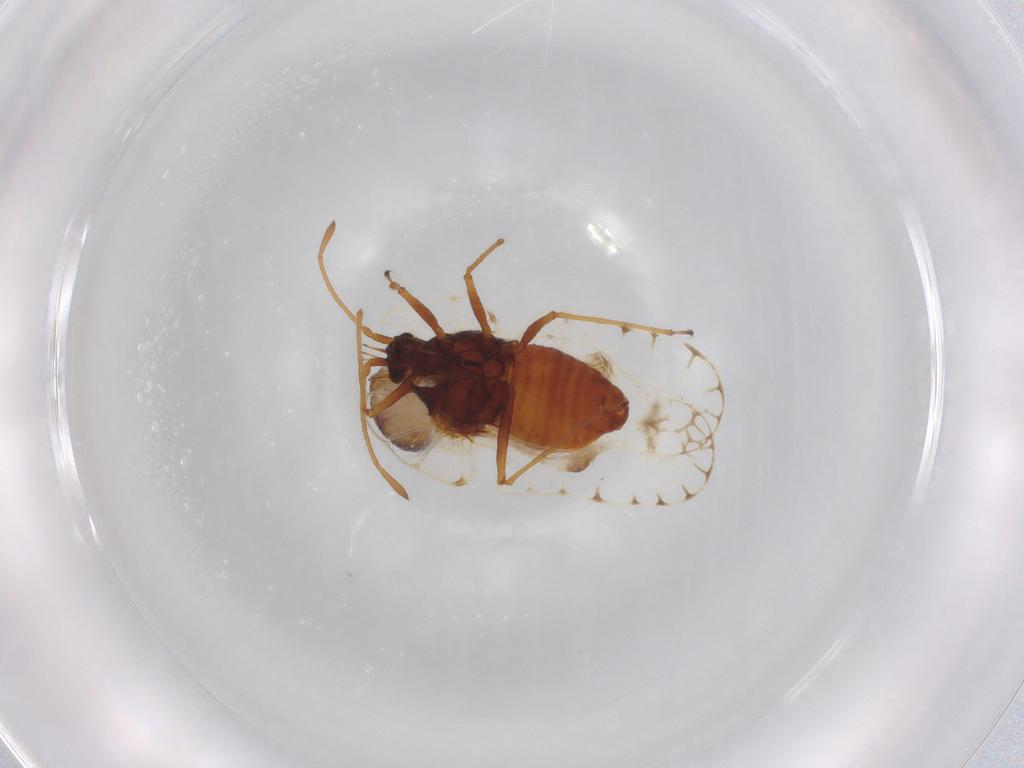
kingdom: Animalia
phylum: Arthropoda
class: Insecta
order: Hemiptera
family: Tingidae
